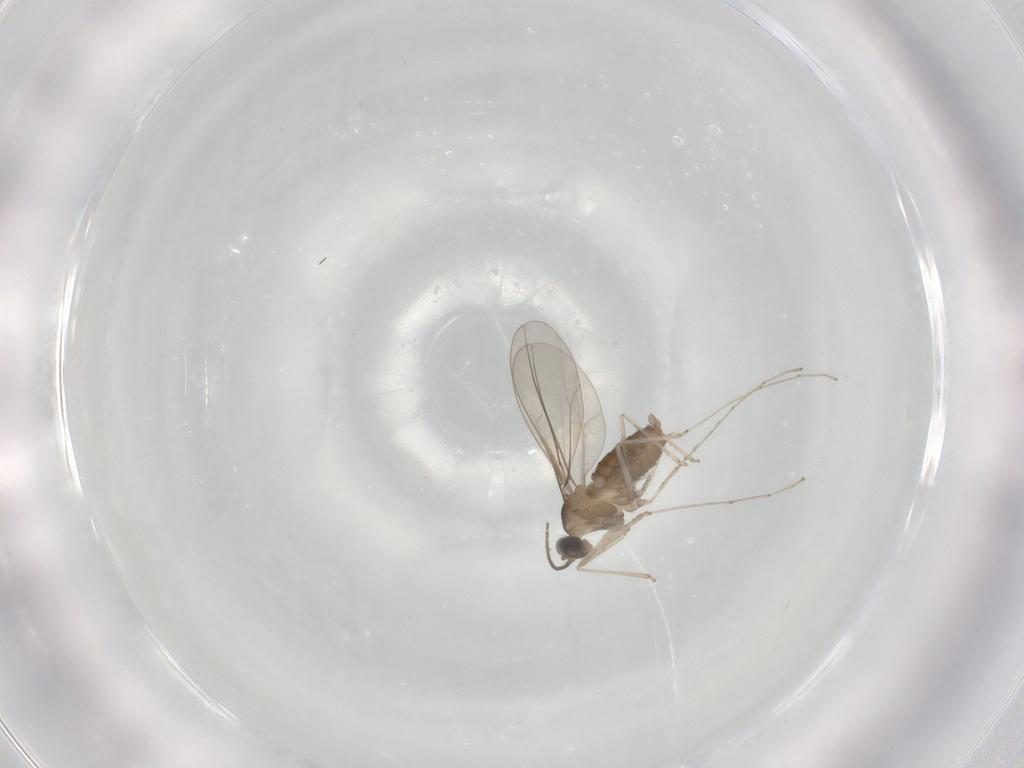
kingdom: Animalia
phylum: Arthropoda
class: Insecta
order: Diptera
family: Cecidomyiidae
